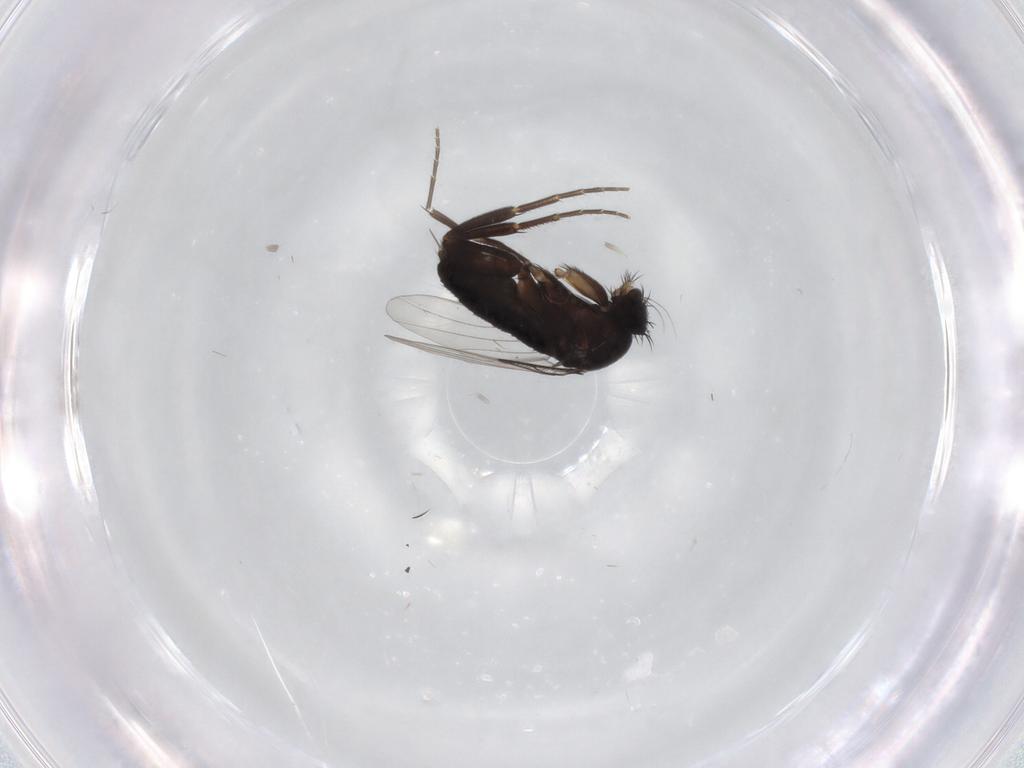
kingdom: Animalia
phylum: Arthropoda
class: Insecta
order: Diptera
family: Phoridae
